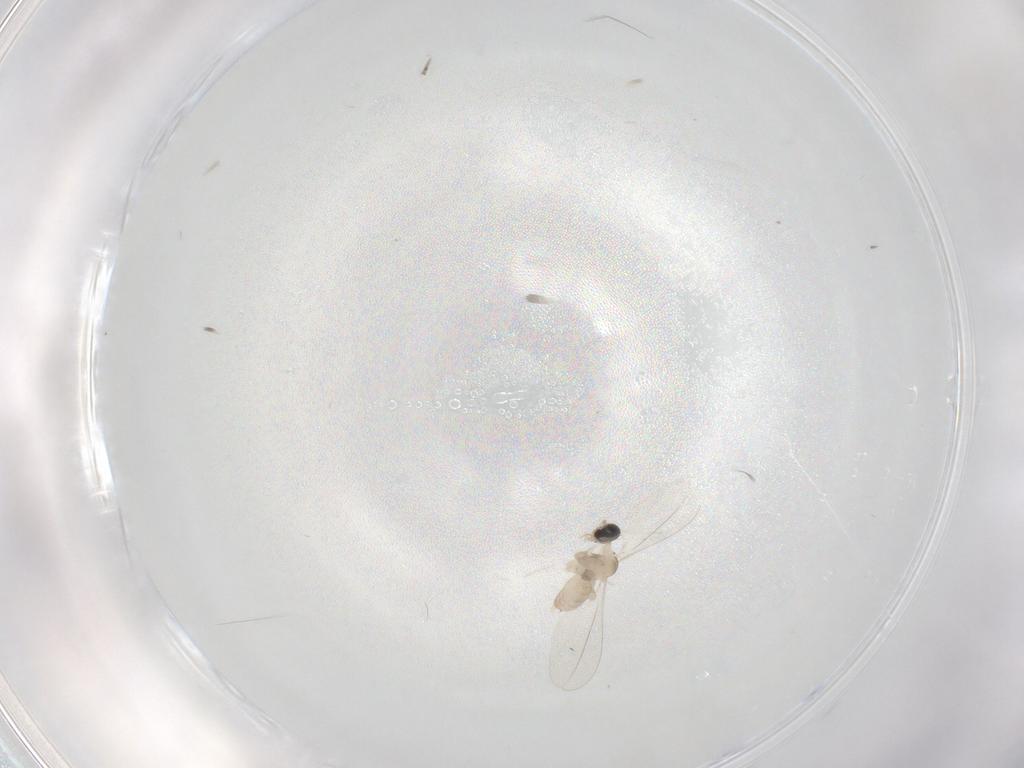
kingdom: Animalia
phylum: Arthropoda
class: Insecta
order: Diptera
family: Cecidomyiidae
